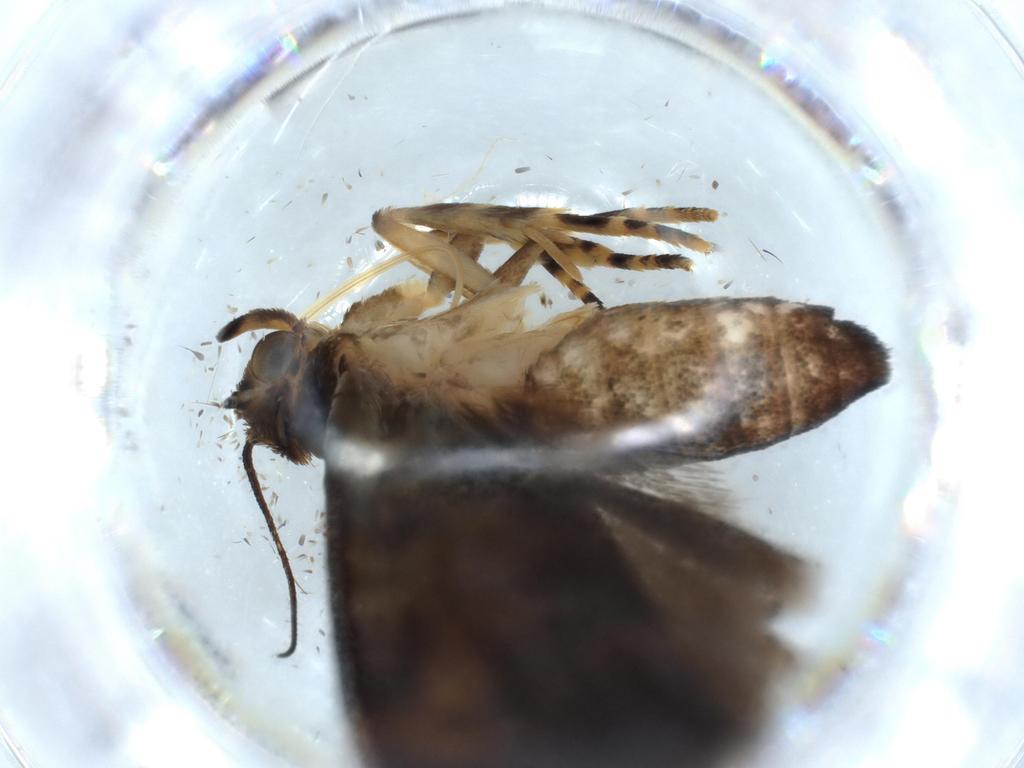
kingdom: Animalia
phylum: Arthropoda
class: Insecta
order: Lepidoptera
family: Immidae
